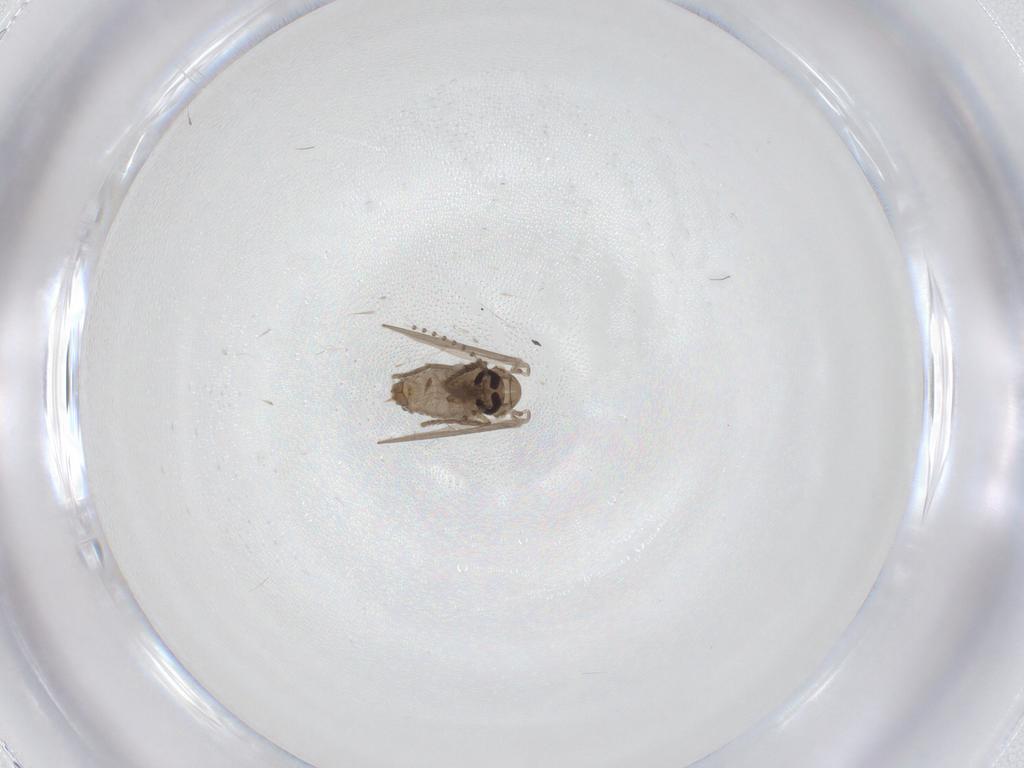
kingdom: Animalia
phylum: Arthropoda
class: Insecta
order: Diptera
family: Psychodidae
